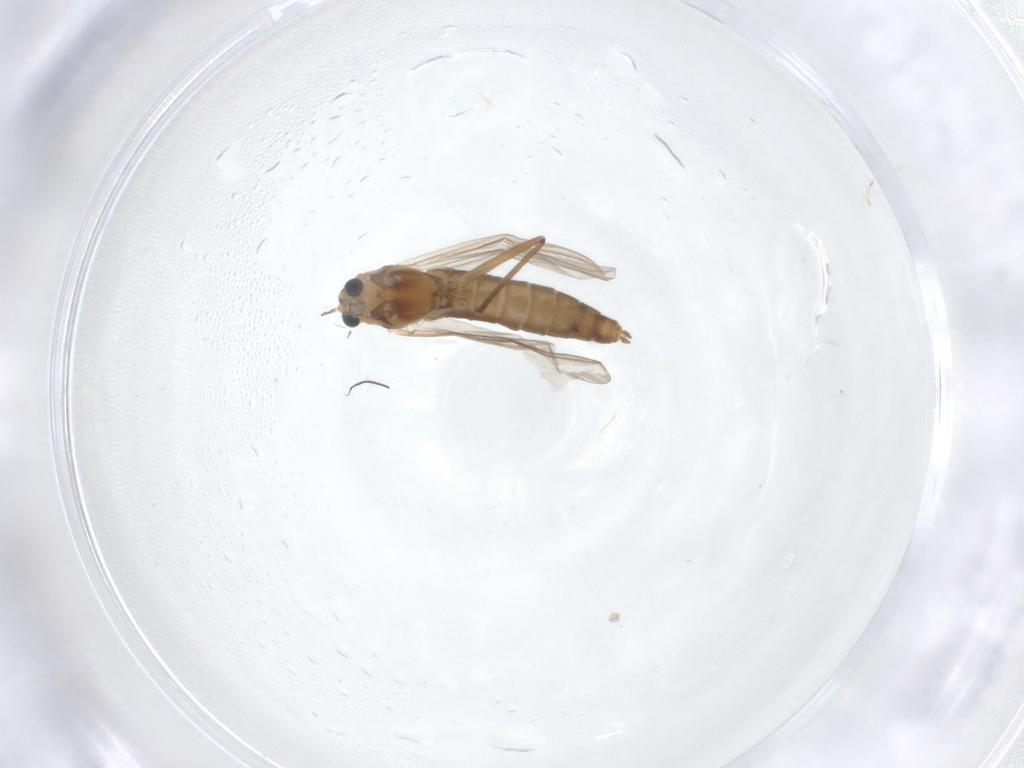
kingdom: Animalia
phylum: Arthropoda
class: Insecta
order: Diptera
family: Chironomidae
